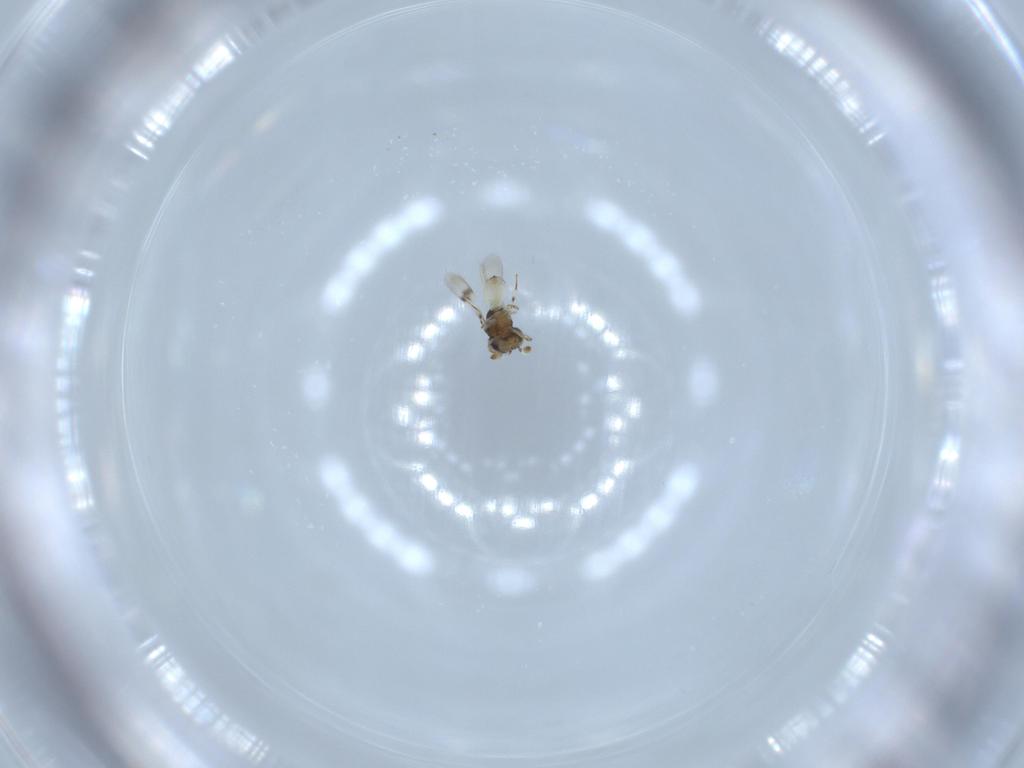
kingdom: Animalia
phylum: Arthropoda
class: Insecta
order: Hymenoptera
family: Scelionidae
